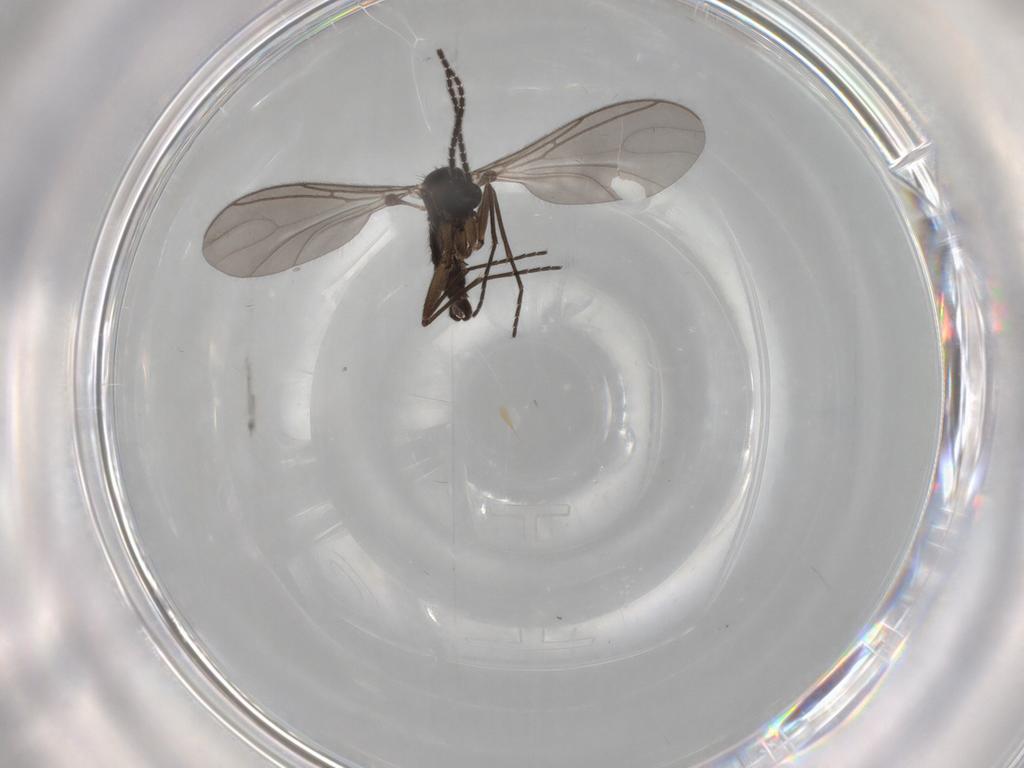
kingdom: Animalia
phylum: Arthropoda
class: Insecta
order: Diptera
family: Sciaridae
